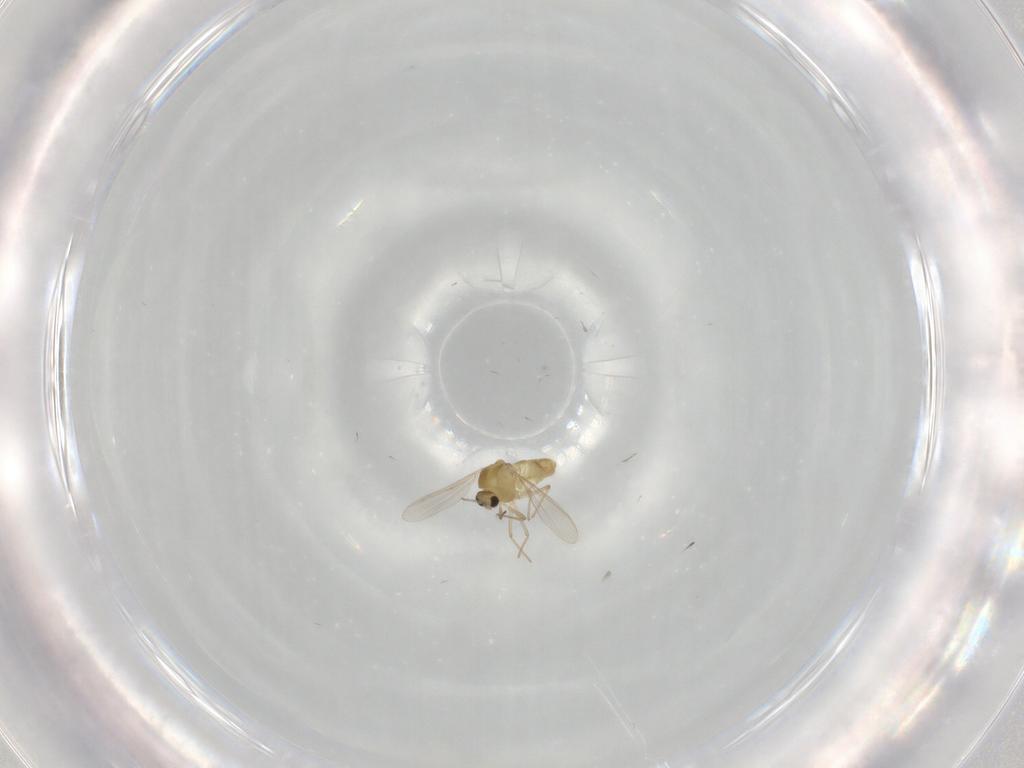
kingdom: Animalia
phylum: Arthropoda
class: Insecta
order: Diptera
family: Chironomidae
